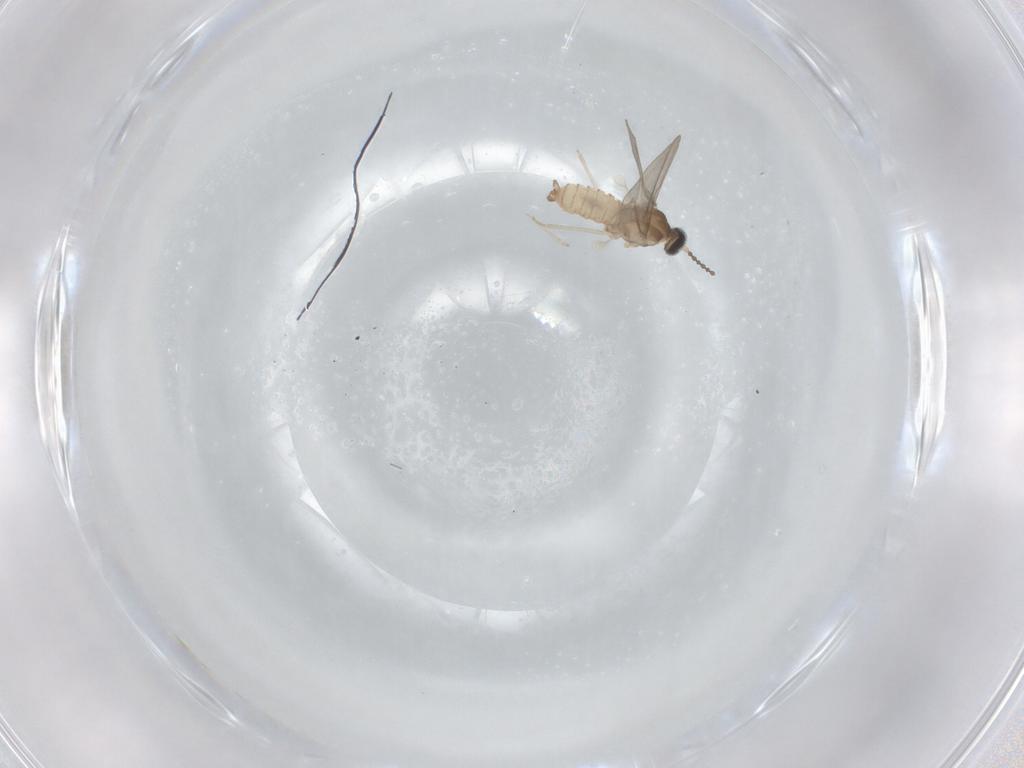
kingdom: Animalia
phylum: Arthropoda
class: Insecta
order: Diptera
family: Cecidomyiidae
